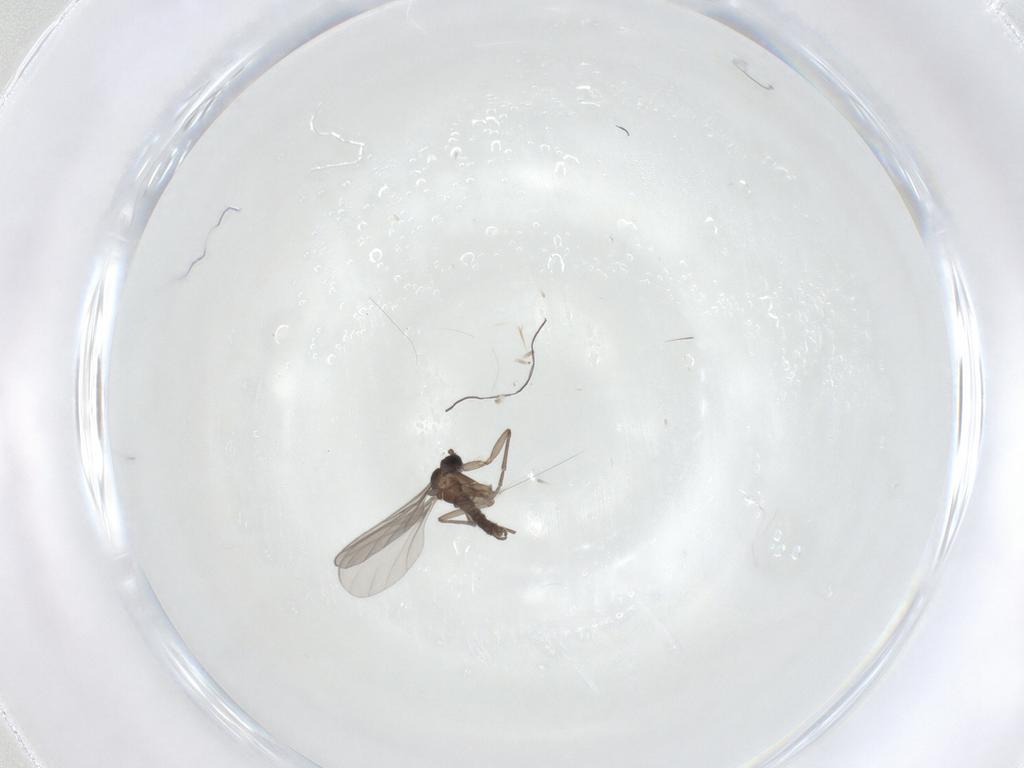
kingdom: Animalia
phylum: Arthropoda
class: Insecta
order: Diptera
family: Sciaridae
